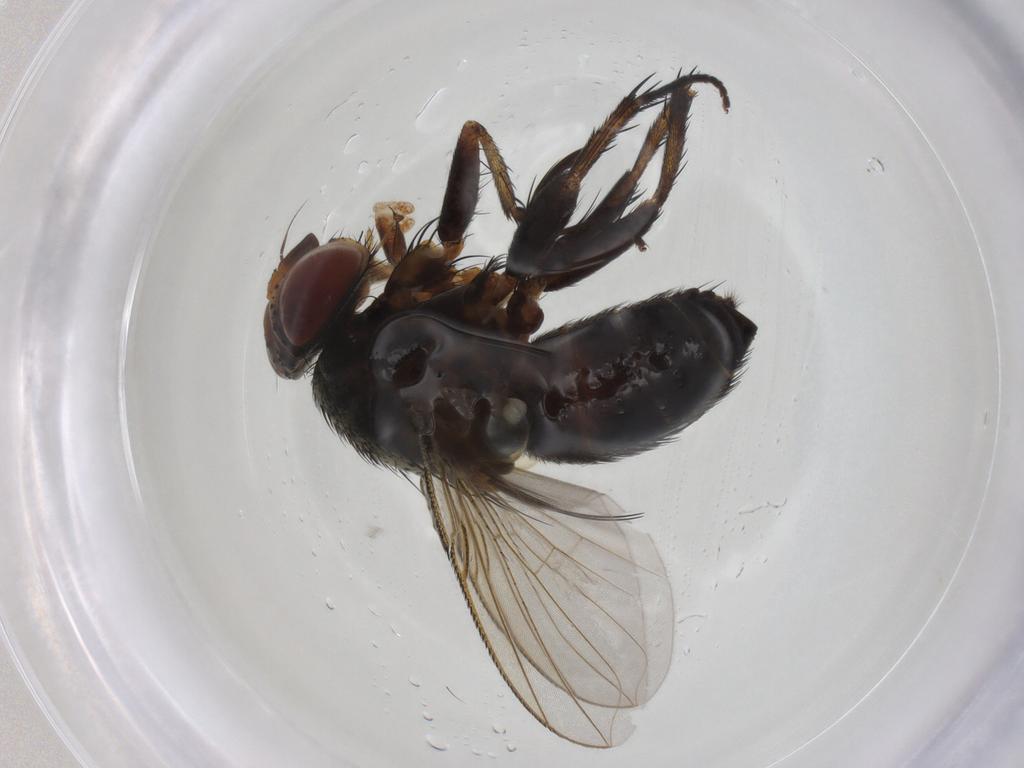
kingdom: Animalia
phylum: Arthropoda
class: Insecta
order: Diptera
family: Tachinidae
